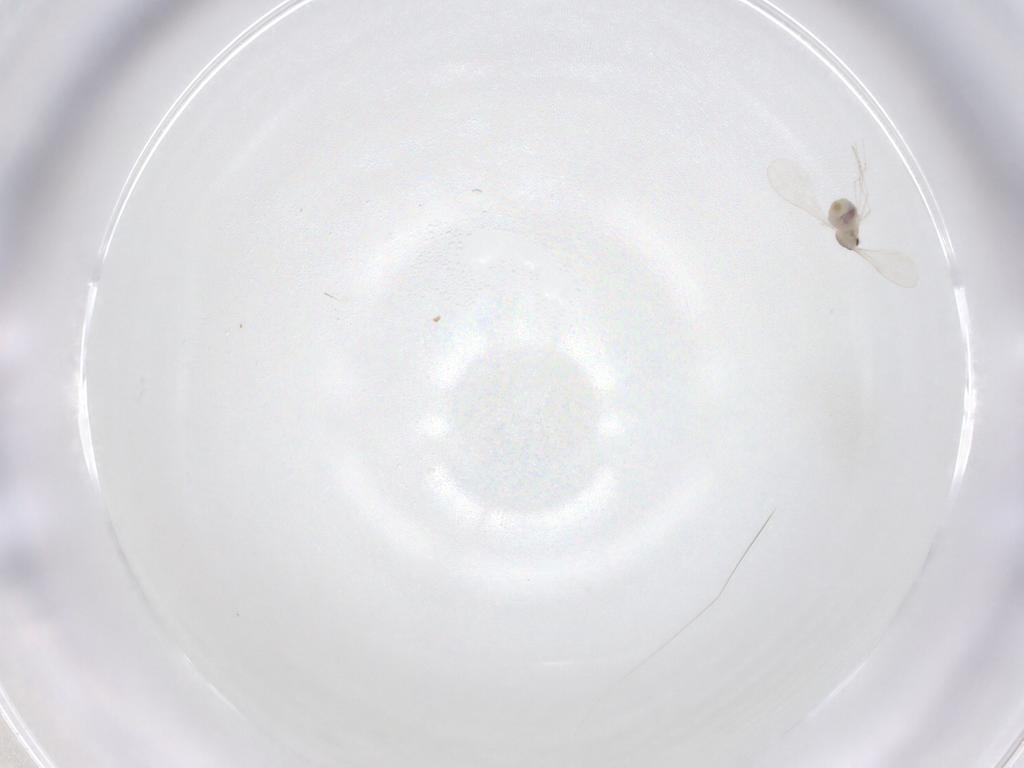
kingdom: Animalia
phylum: Arthropoda
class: Insecta
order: Diptera
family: Cecidomyiidae
